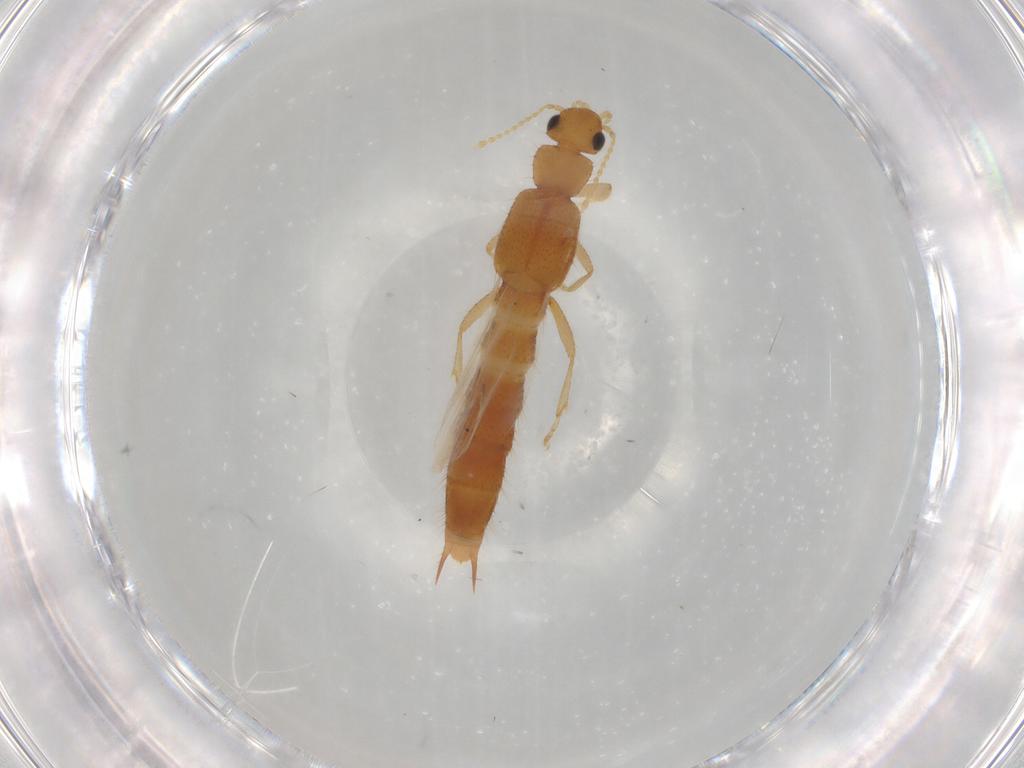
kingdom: Animalia
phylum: Arthropoda
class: Insecta
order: Coleoptera
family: Staphylinidae
